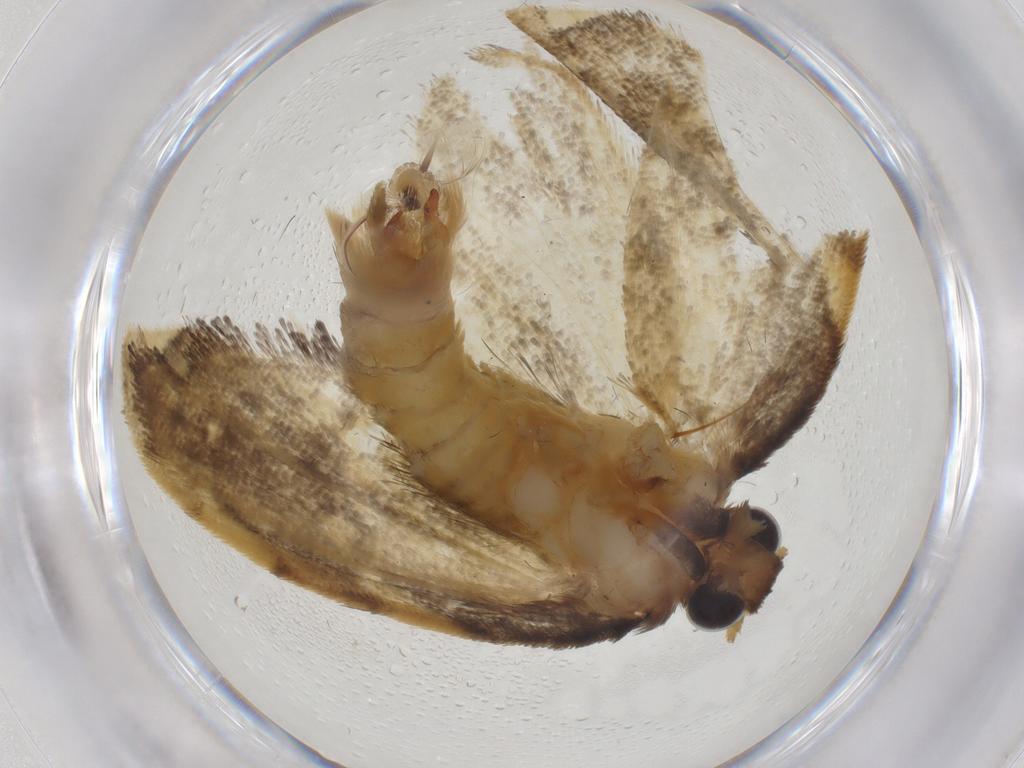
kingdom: Animalia
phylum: Arthropoda
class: Insecta
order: Lepidoptera
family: Psychidae
